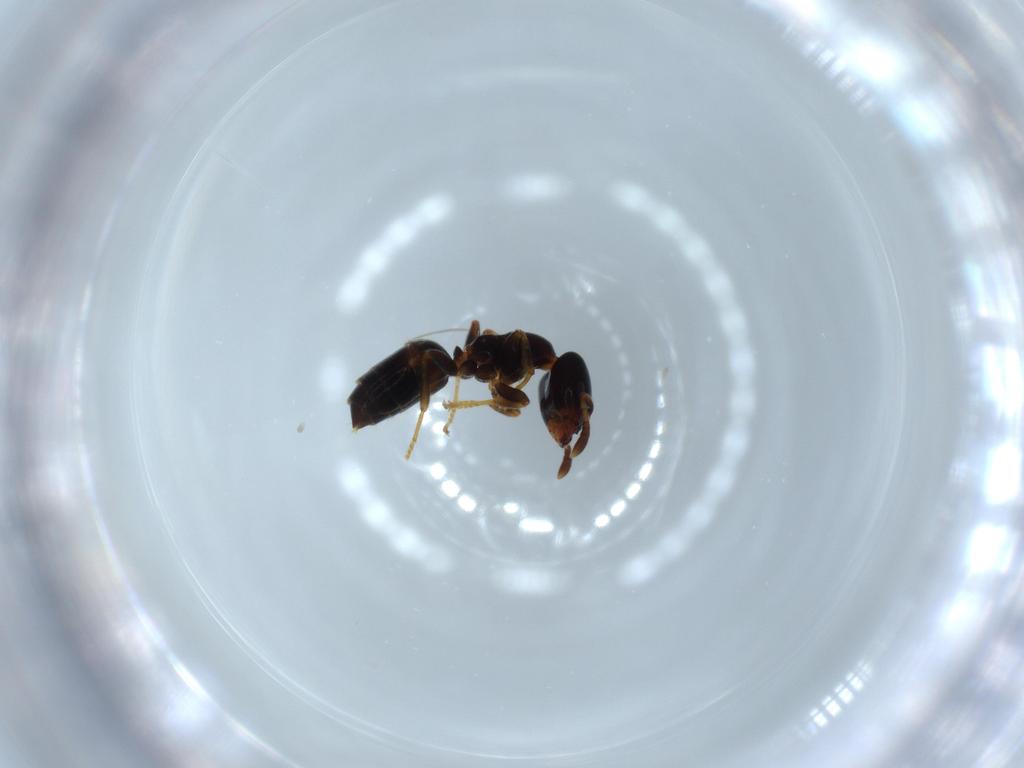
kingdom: Animalia
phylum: Arthropoda
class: Insecta
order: Hymenoptera
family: Formicidae
